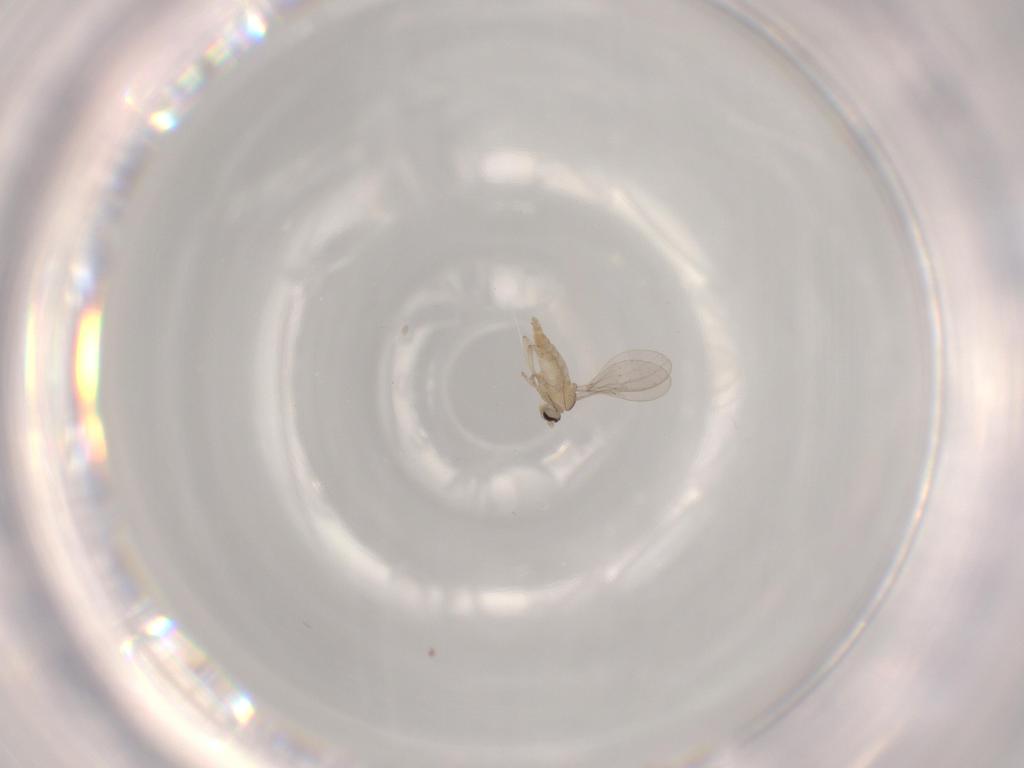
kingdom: Animalia
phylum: Arthropoda
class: Insecta
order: Diptera
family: Cecidomyiidae
